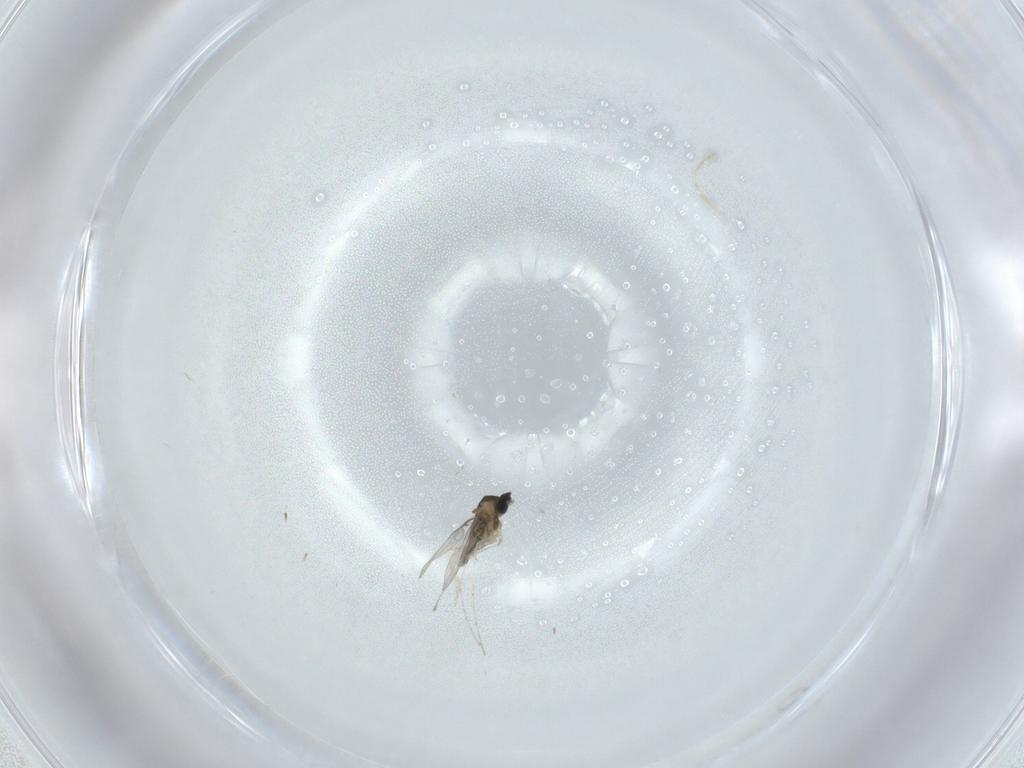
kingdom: Animalia
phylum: Arthropoda
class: Insecta
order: Diptera
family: Cecidomyiidae
